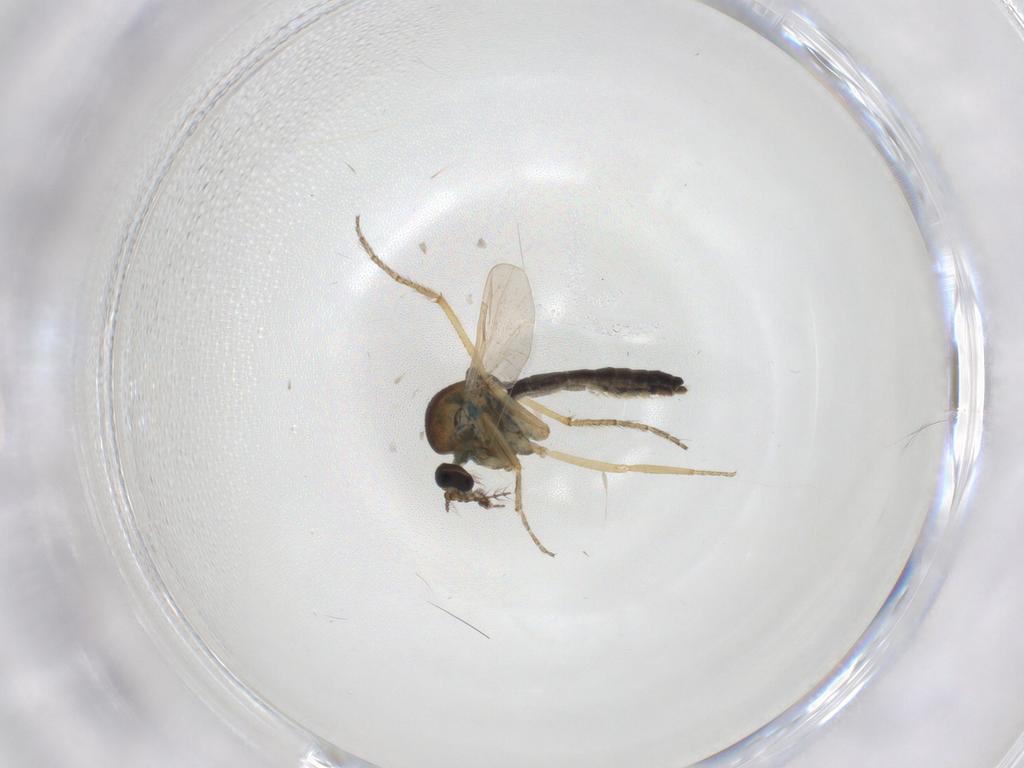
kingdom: Animalia
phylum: Arthropoda
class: Insecta
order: Diptera
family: Ceratopogonidae
